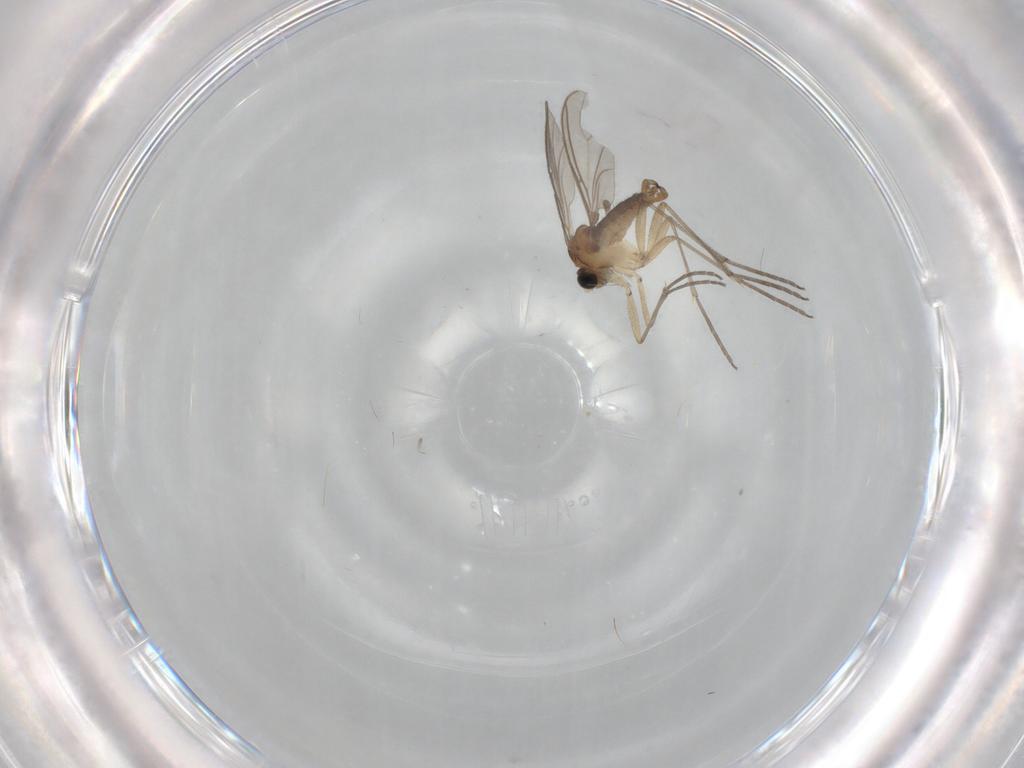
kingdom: Animalia
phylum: Arthropoda
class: Insecta
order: Diptera
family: Sciaridae
